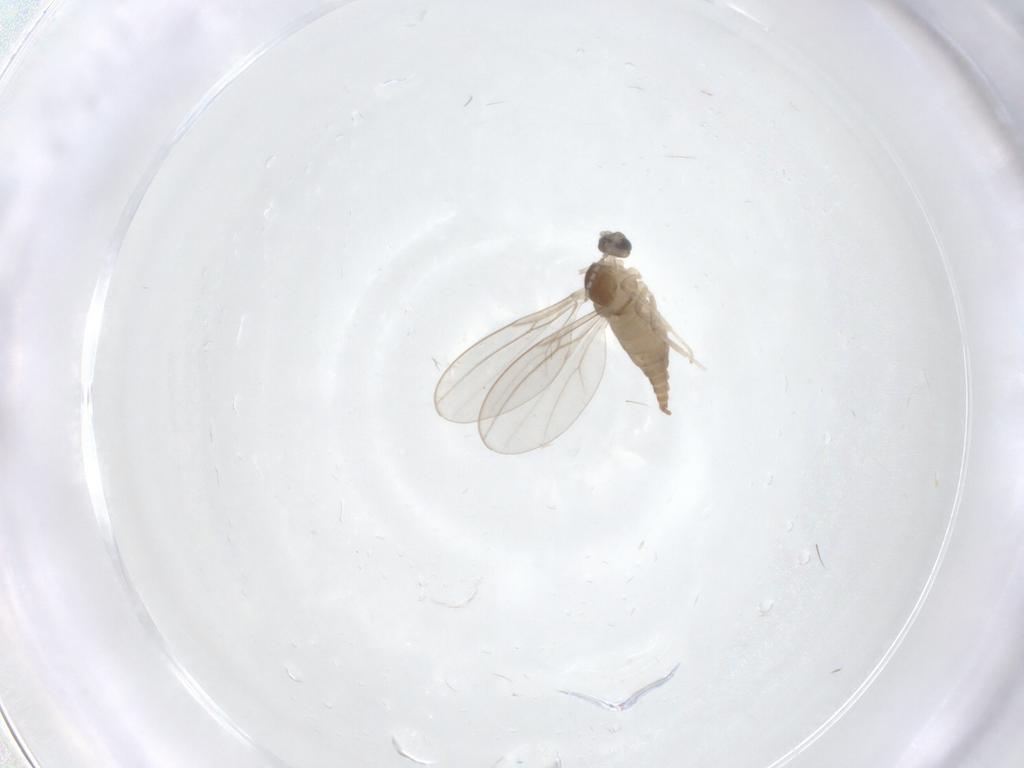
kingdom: Animalia
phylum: Arthropoda
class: Insecta
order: Diptera
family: Cecidomyiidae
